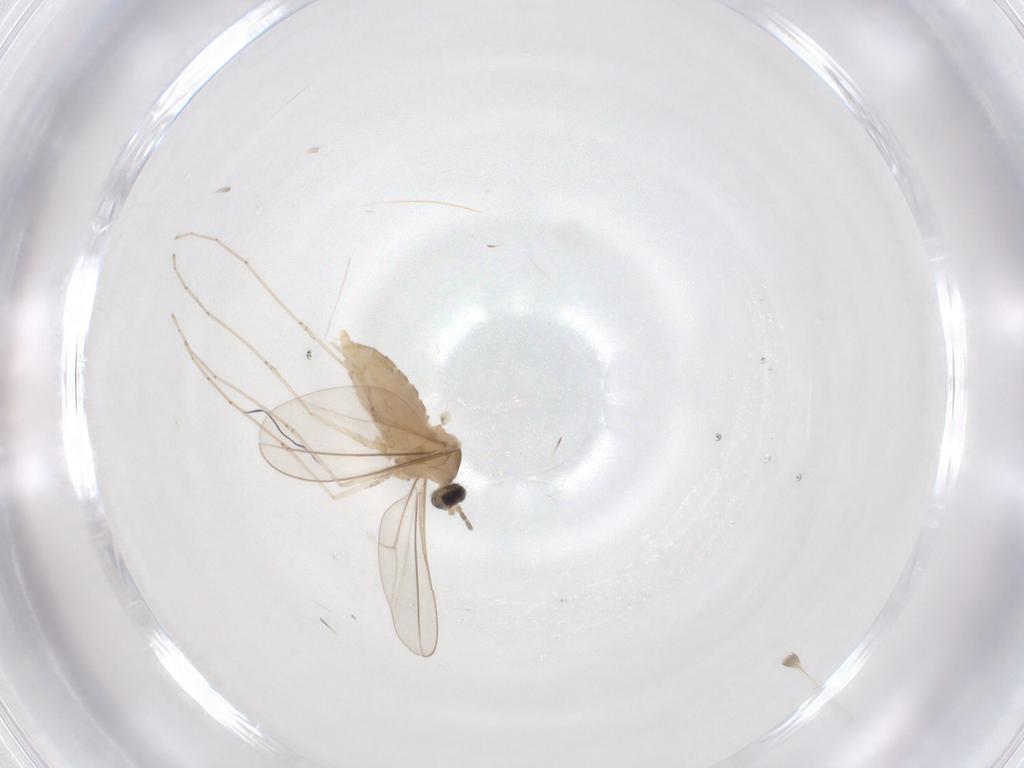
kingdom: Animalia
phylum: Arthropoda
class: Insecta
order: Diptera
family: Cecidomyiidae
